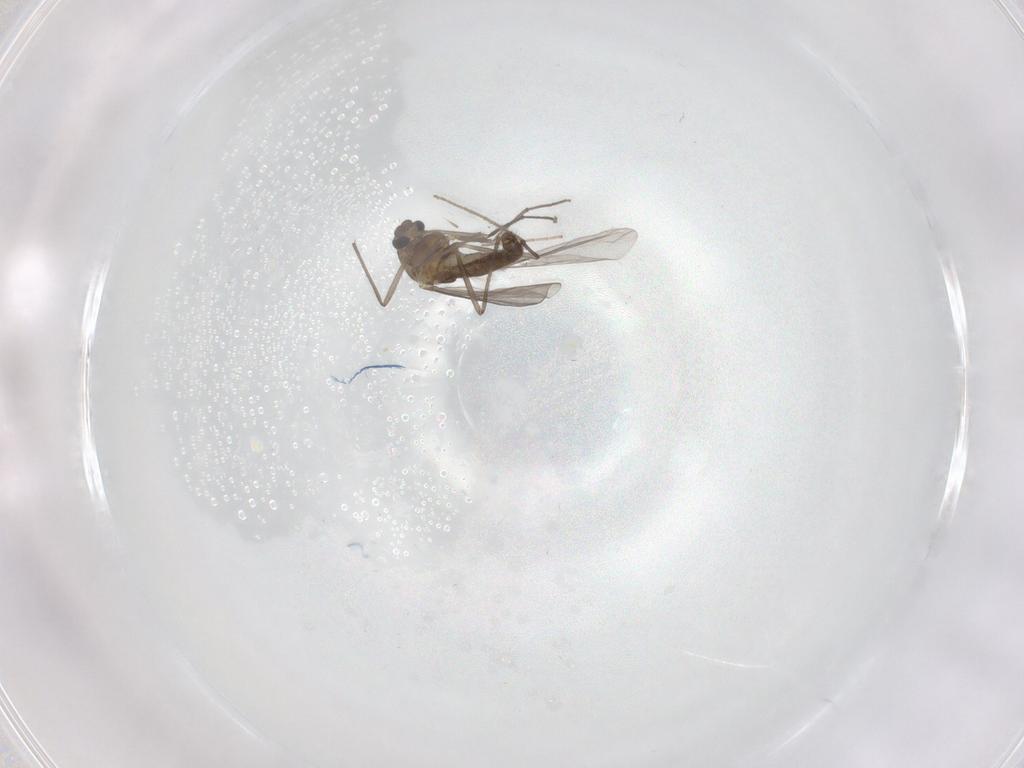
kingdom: Animalia
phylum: Arthropoda
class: Insecta
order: Diptera
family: Chironomidae
